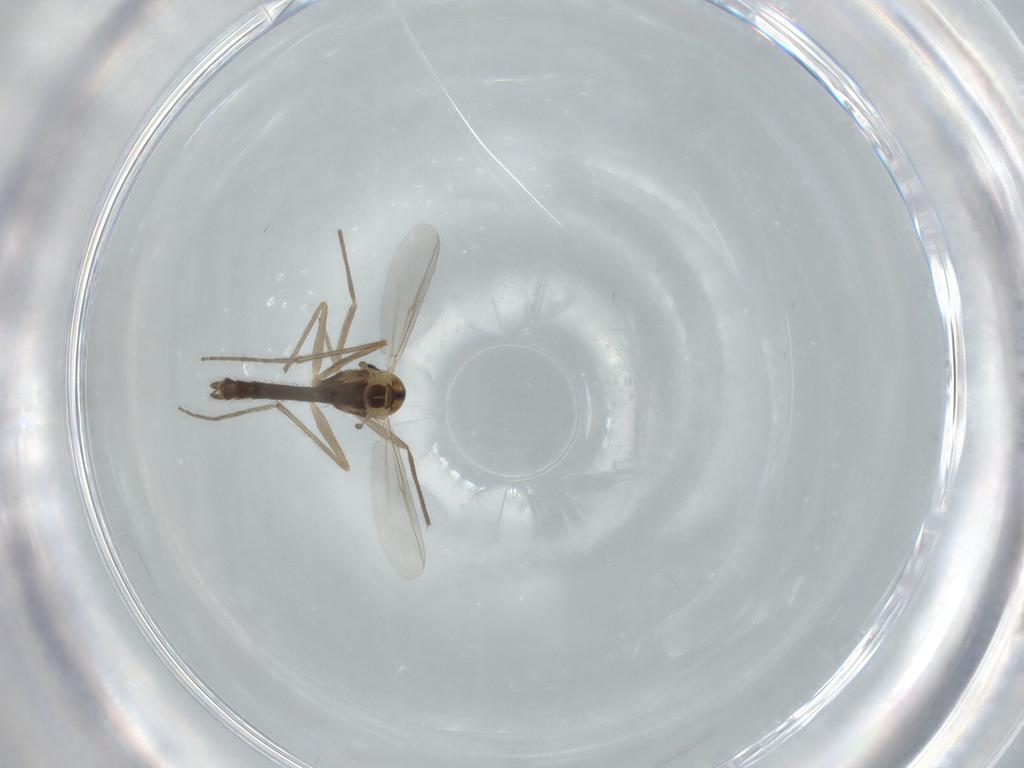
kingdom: Animalia
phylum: Arthropoda
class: Insecta
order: Diptera
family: Chironomidae
